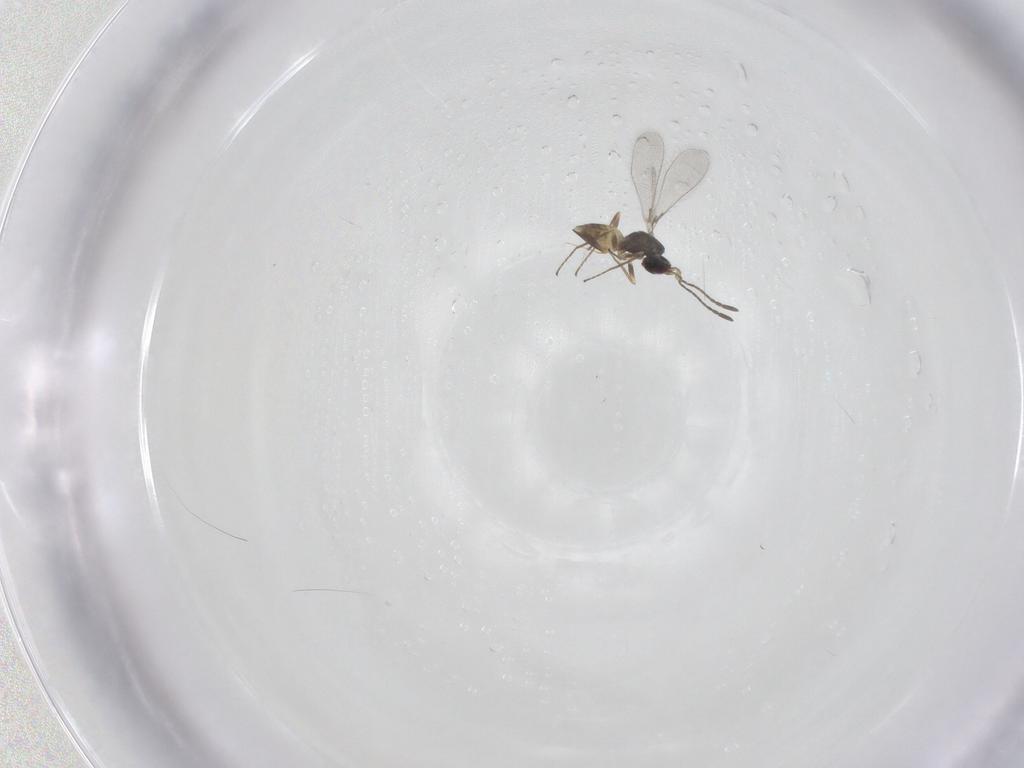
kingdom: Animalia
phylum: Arthropoda
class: Insecta
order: Hymenoptera
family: Mymaridae
